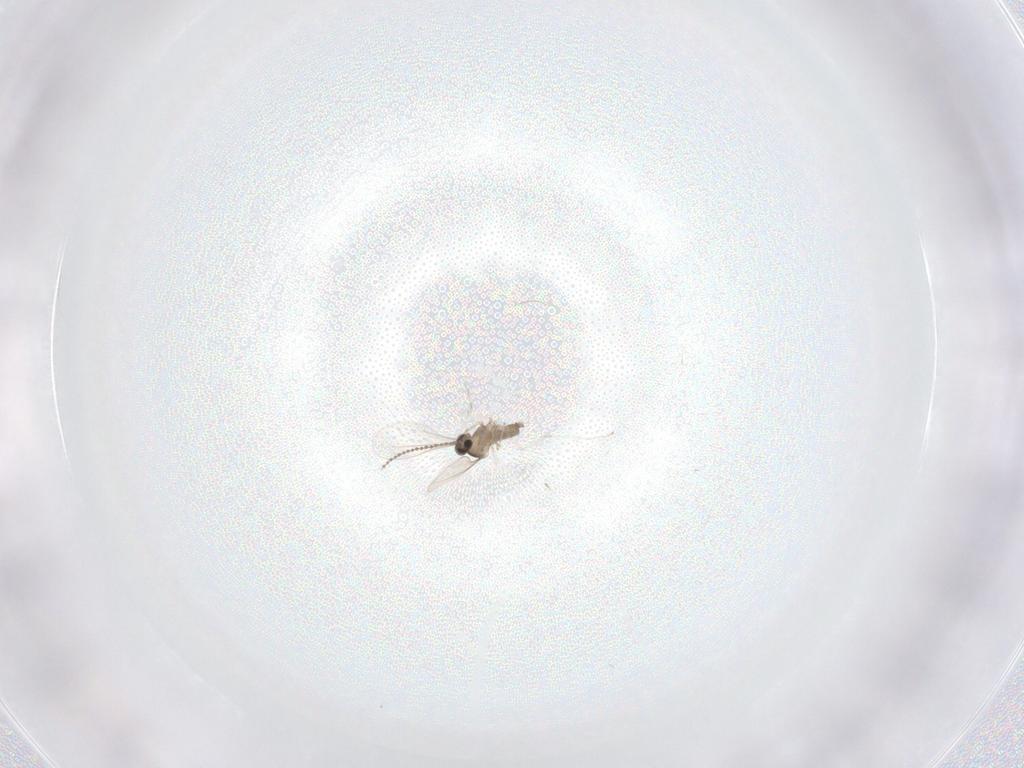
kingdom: Animalia
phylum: Arthropoda
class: Insecta
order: Diptera
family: Cecidomyiidae
